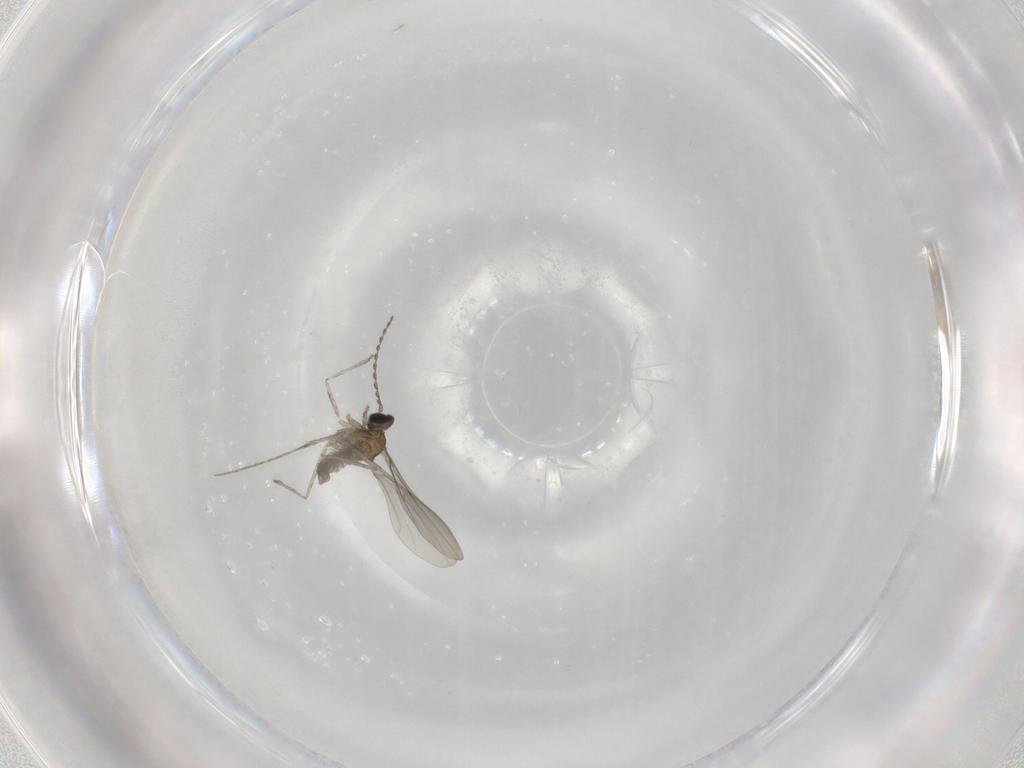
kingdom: Animalia
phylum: Arthropoda
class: Insecta
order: Diptera
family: Cecidomyiidae
